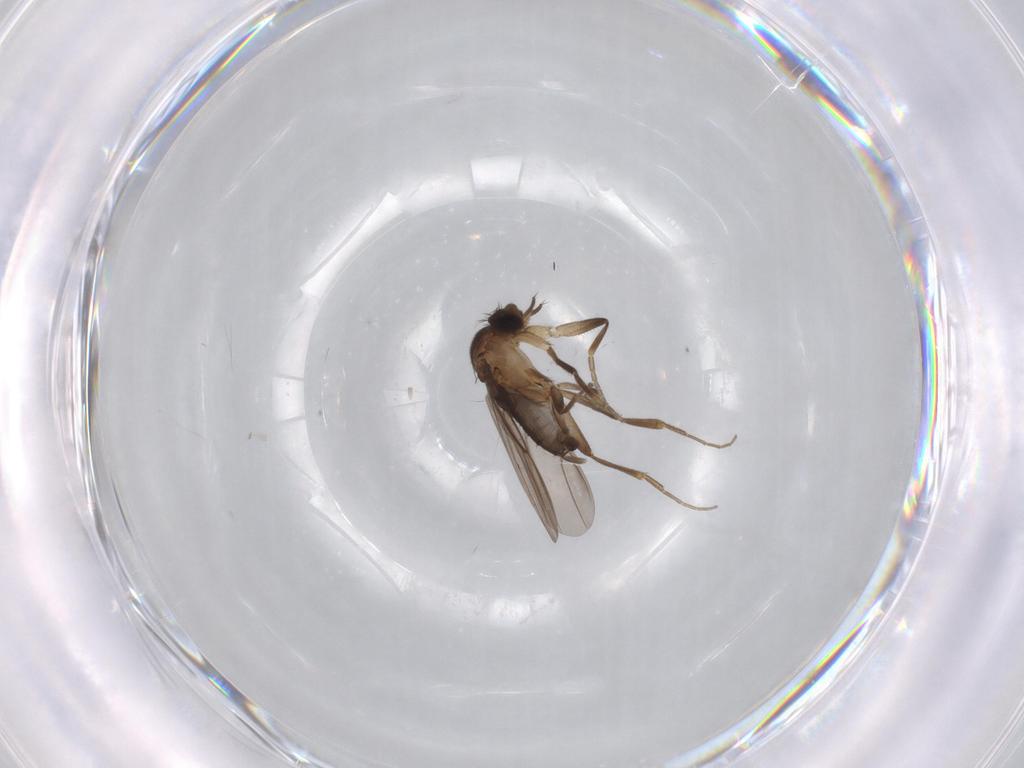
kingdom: Animalia
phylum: Arthropoda
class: Insecta
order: Diptera
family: Phoridae
